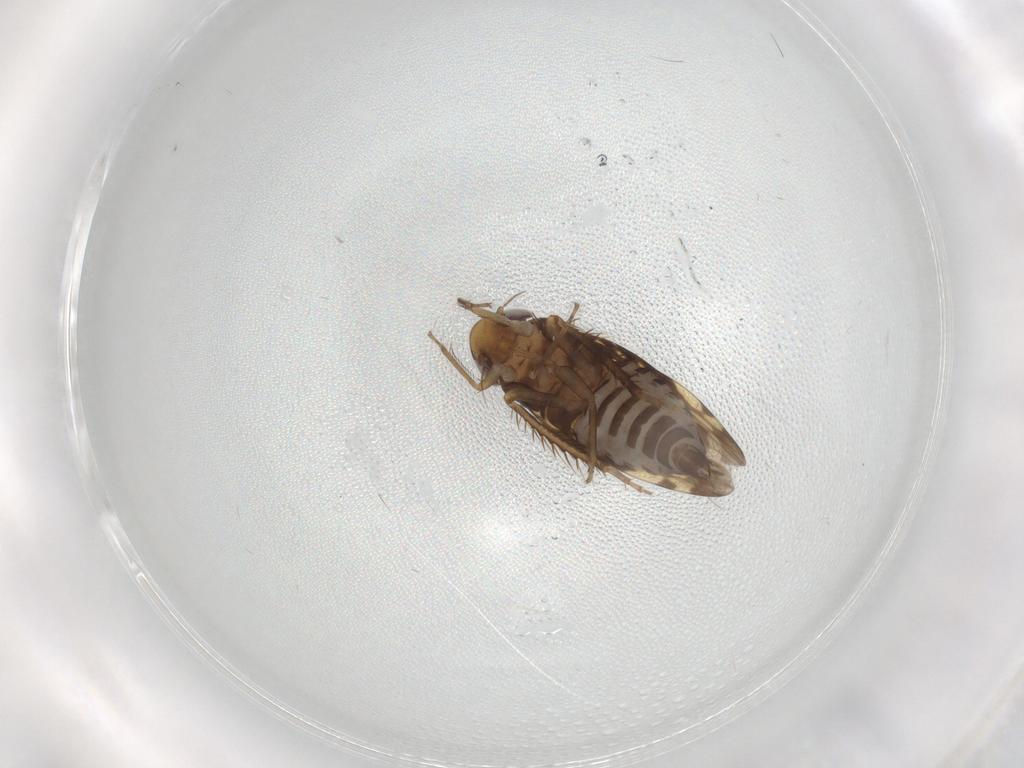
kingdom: Animalia
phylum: Arthropoda
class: Insecta
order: Hemiptera
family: Cicadellidae
